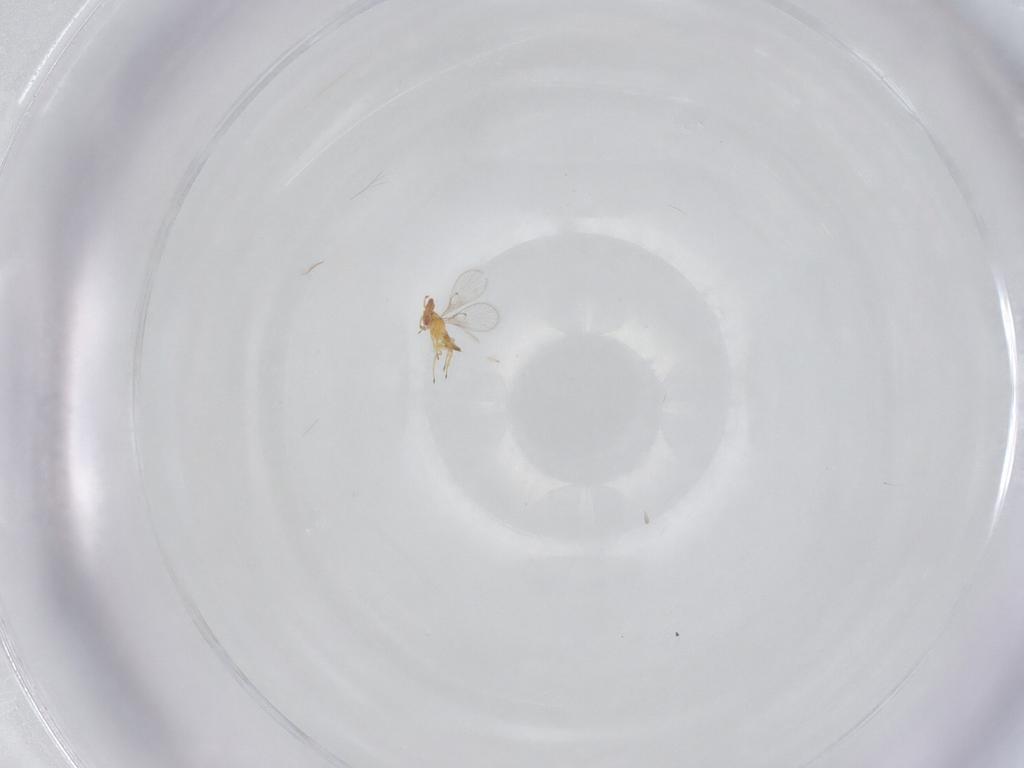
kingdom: Animalia
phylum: Arthropoda
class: Insecta
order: Hymenoptera
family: Trichogrammatidae
